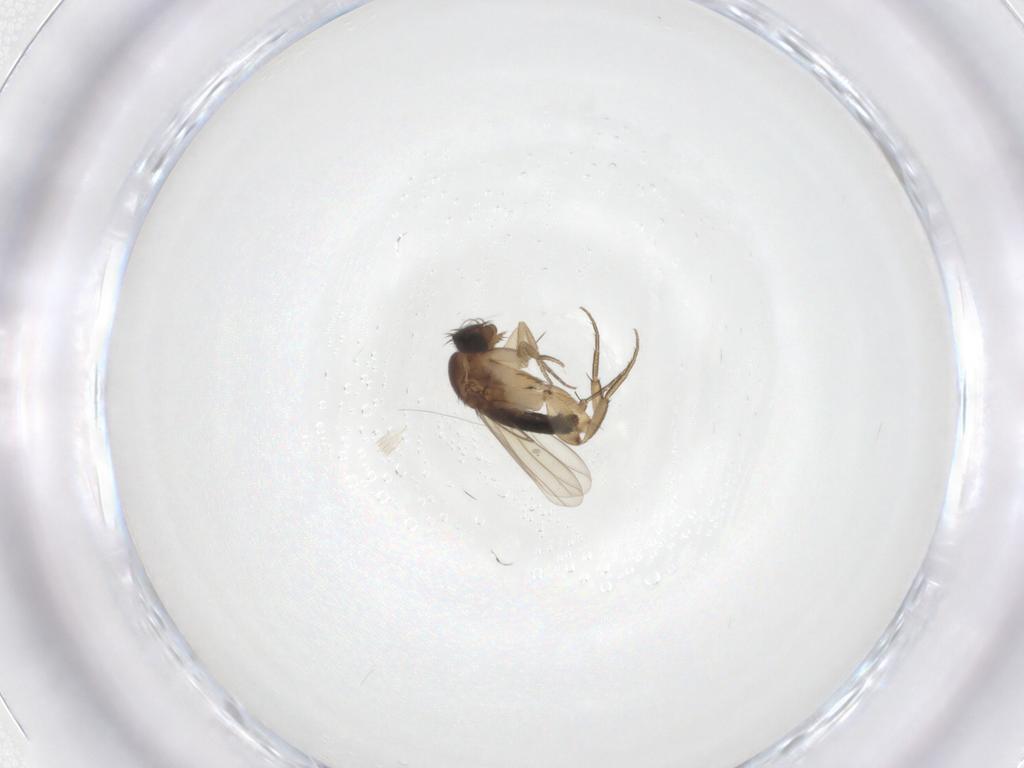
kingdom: Animalia
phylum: Arthropoda
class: Insecta
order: Diptera
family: Phoridae
